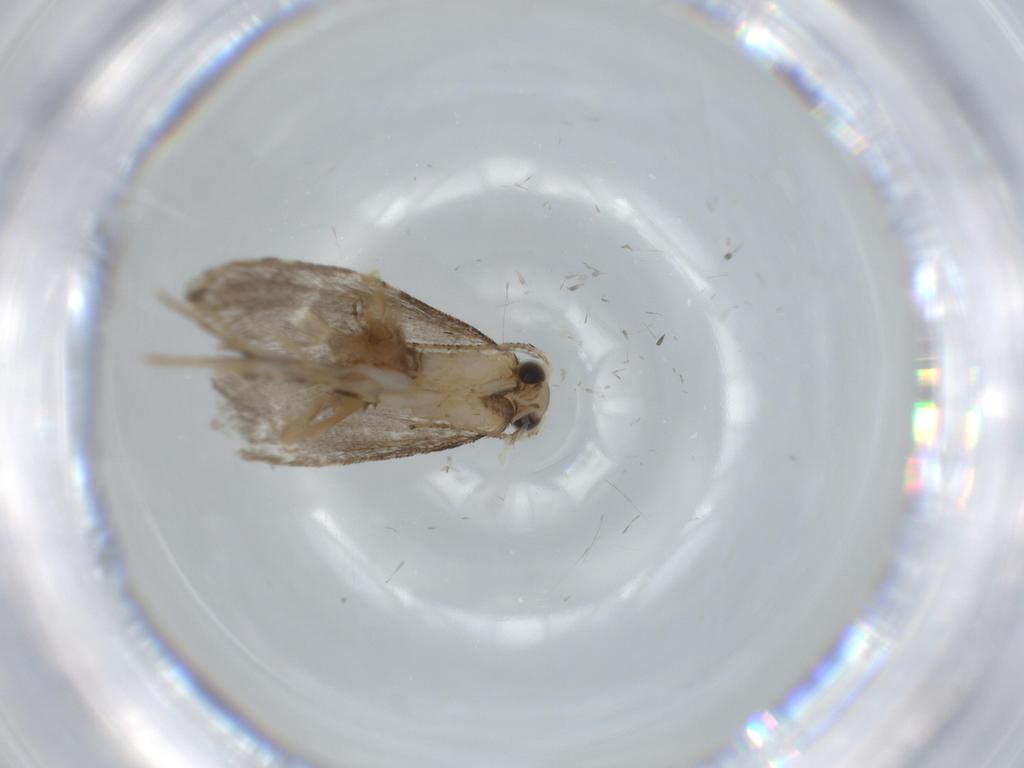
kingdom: Animalia
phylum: Arthropoda
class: Insecta
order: Lepidoptera
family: Tineidae
